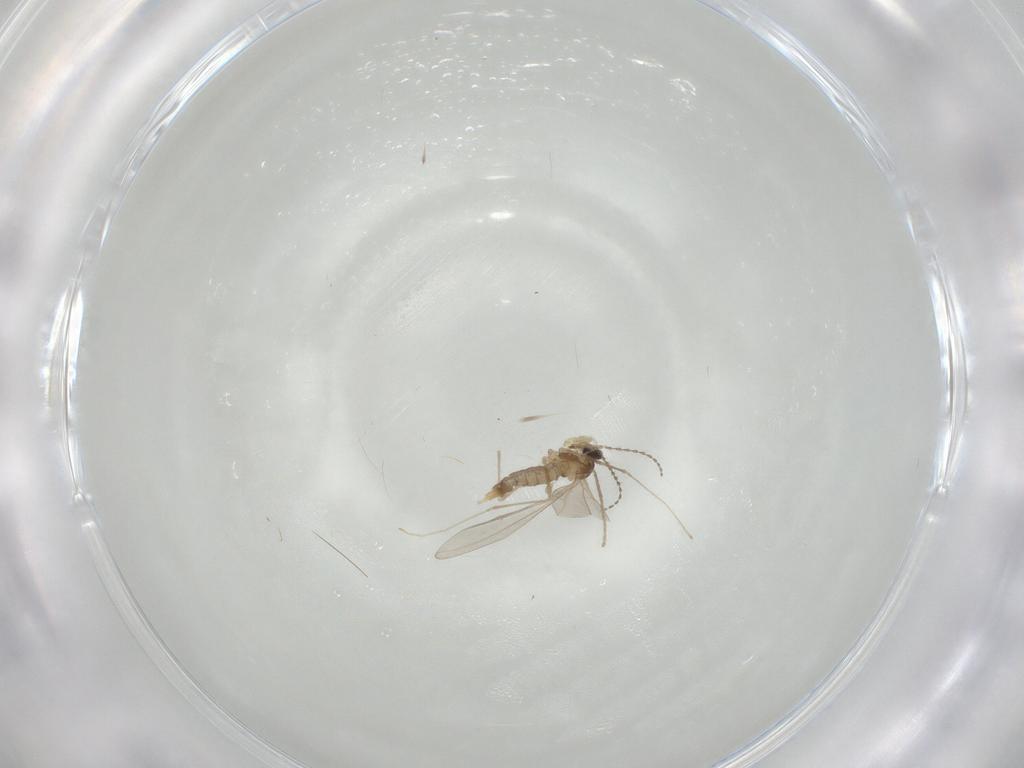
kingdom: Animalia
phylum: Arthropoda
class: Insecta
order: Diptera
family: Cecidomyiidae
